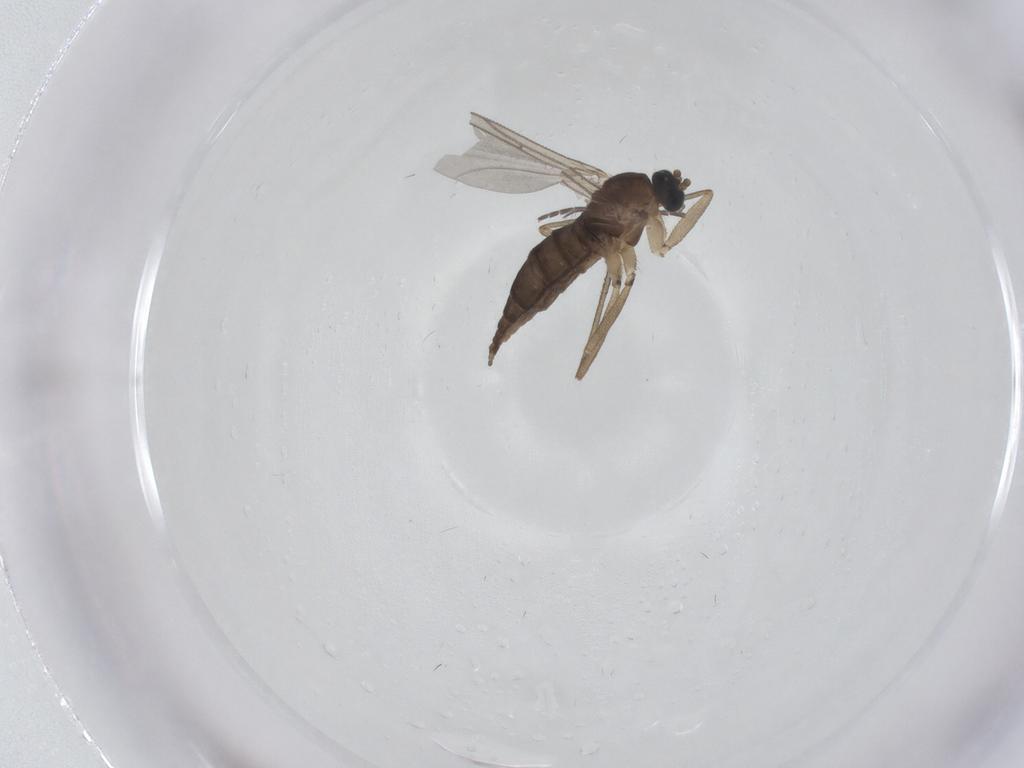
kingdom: Animalia
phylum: Arthropoda
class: Insecta
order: Diptera
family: Sciaridae
